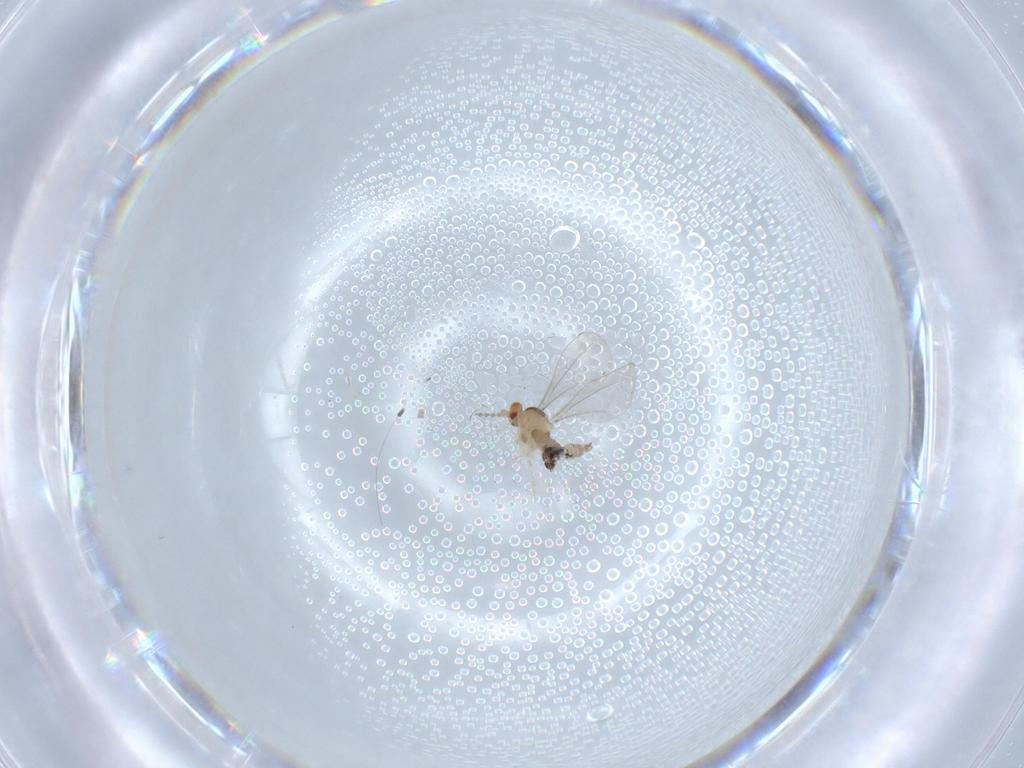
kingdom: Animalia
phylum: Arthropoda
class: Insecta
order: Diptera
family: Cecidomyiidae
